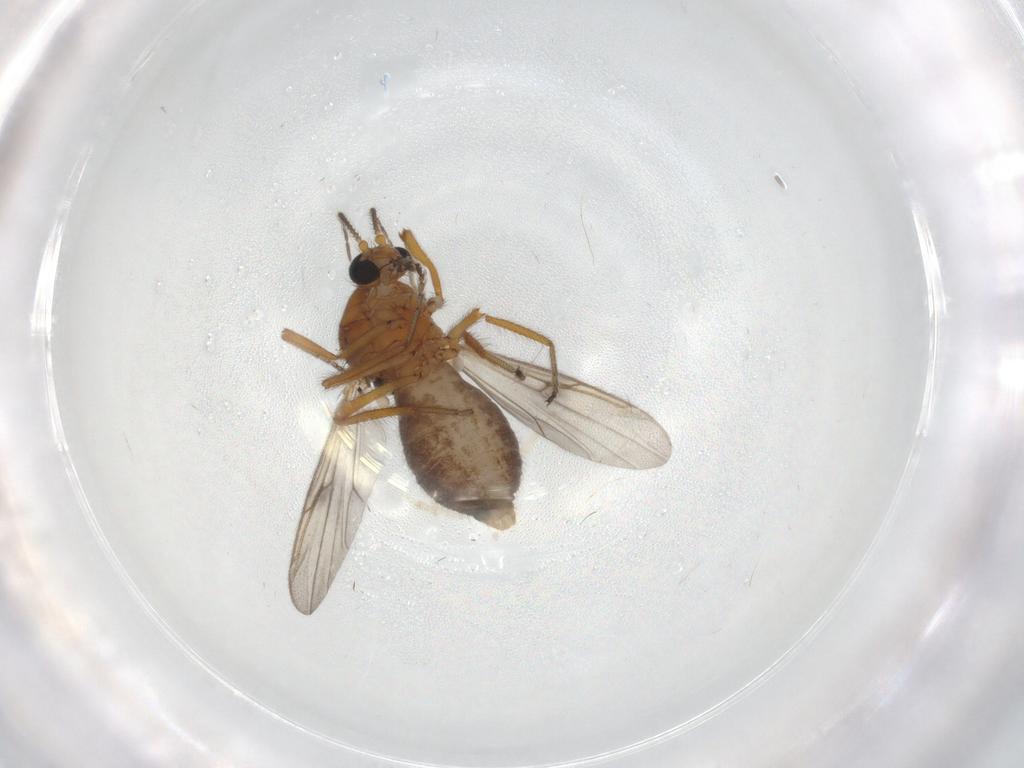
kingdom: Animalia
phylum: Arthropoda
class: Insecta
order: Diptera
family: Ceratopogonidae
